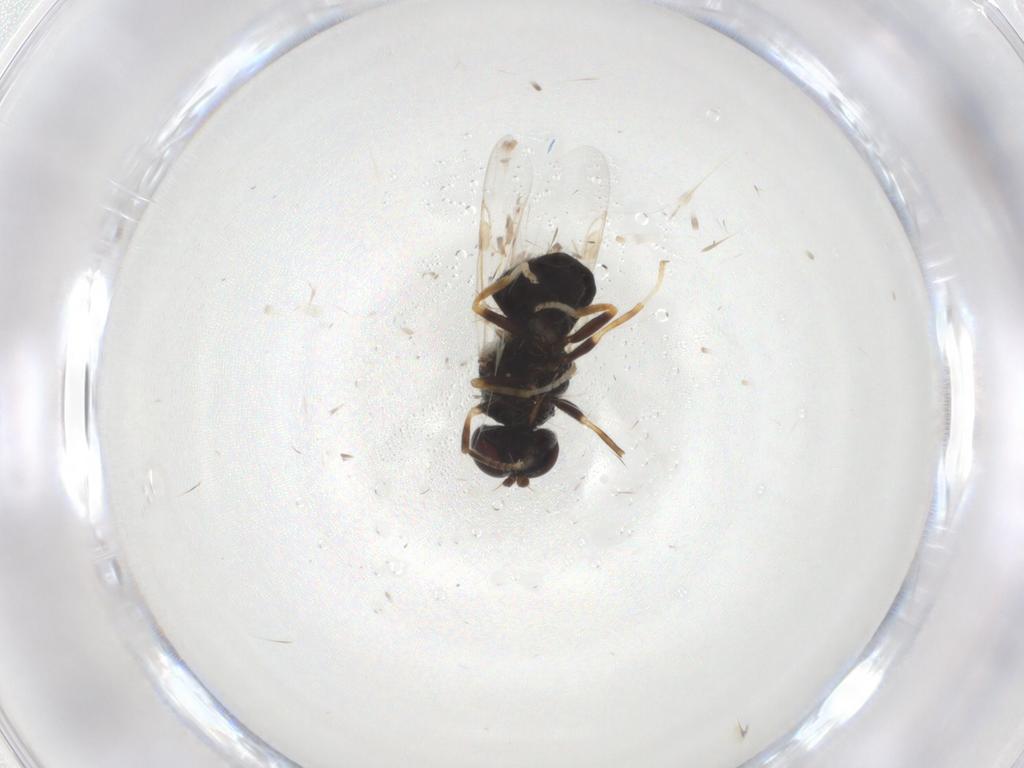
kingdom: Animalia
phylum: Arthropoda
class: Insecta
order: Diptera
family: Stratiomyidae
